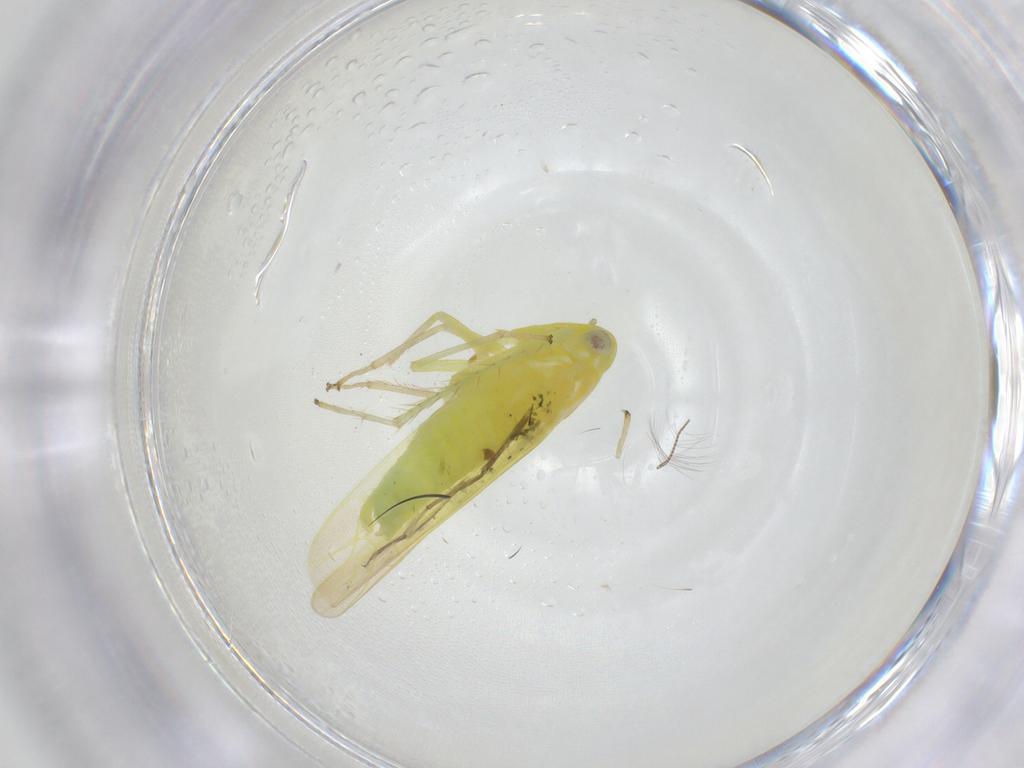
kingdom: Animalia
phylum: Arthropoda
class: Insecta
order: Hemiptera
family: Cicadellidae
